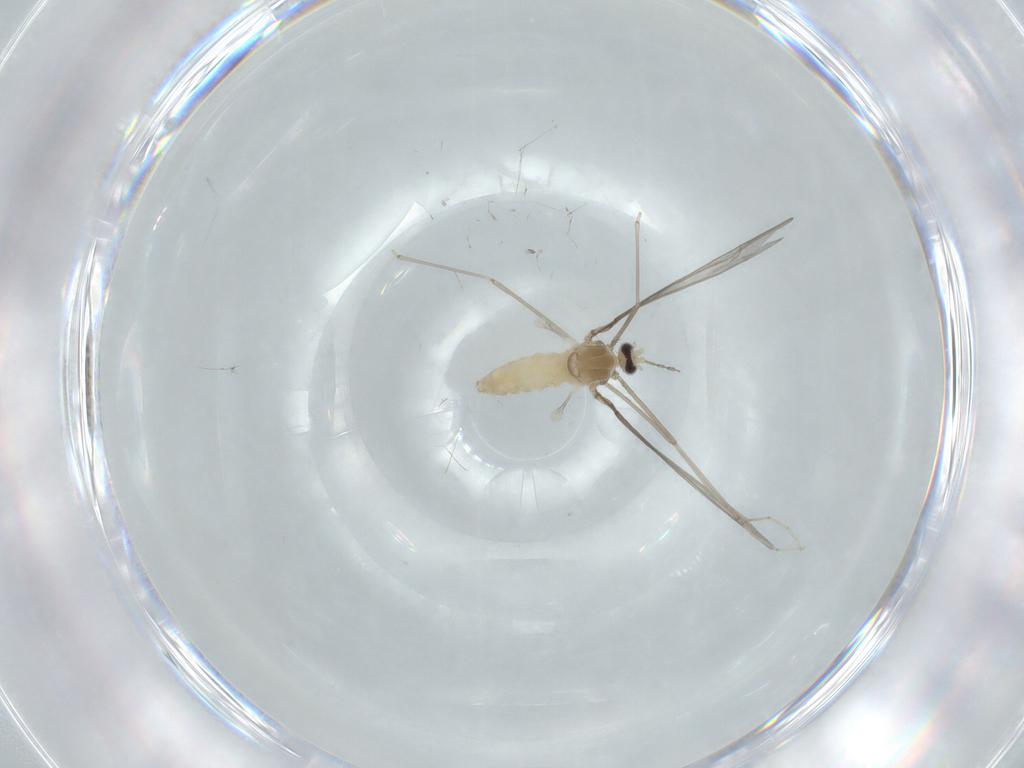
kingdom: Animalia
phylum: Arthropoda
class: Insecta
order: Diptera
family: Cecidomyiidae
